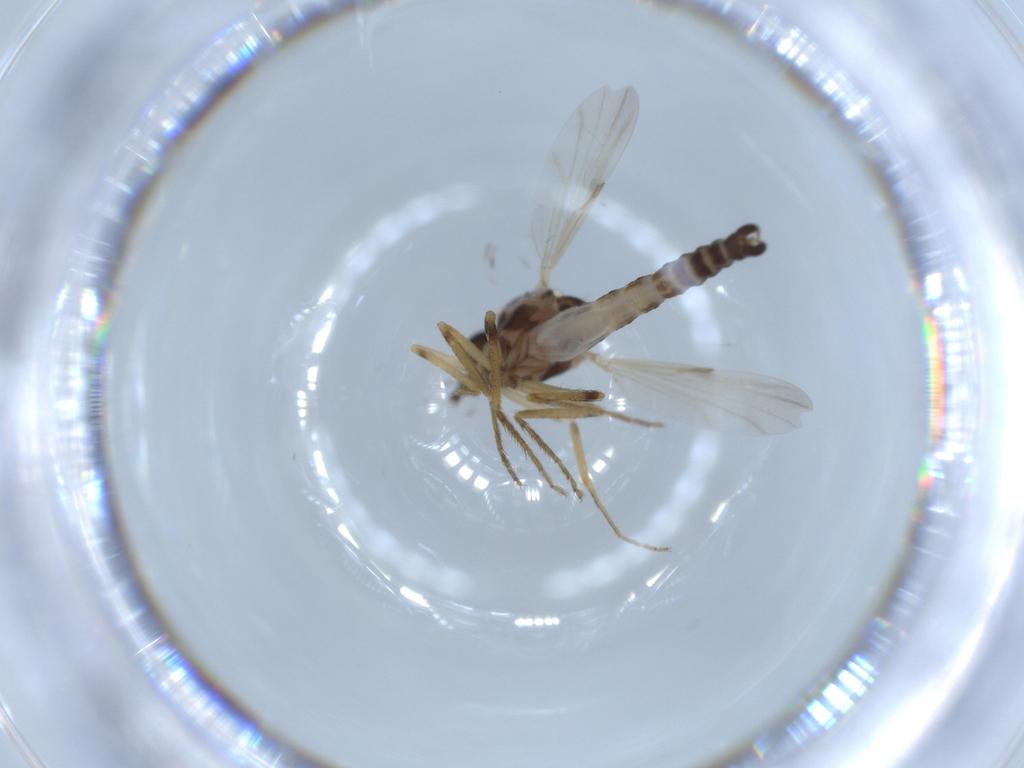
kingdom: Animalia
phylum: Arthropoda
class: Insecta
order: Diptera
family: Ceratopogonidae
